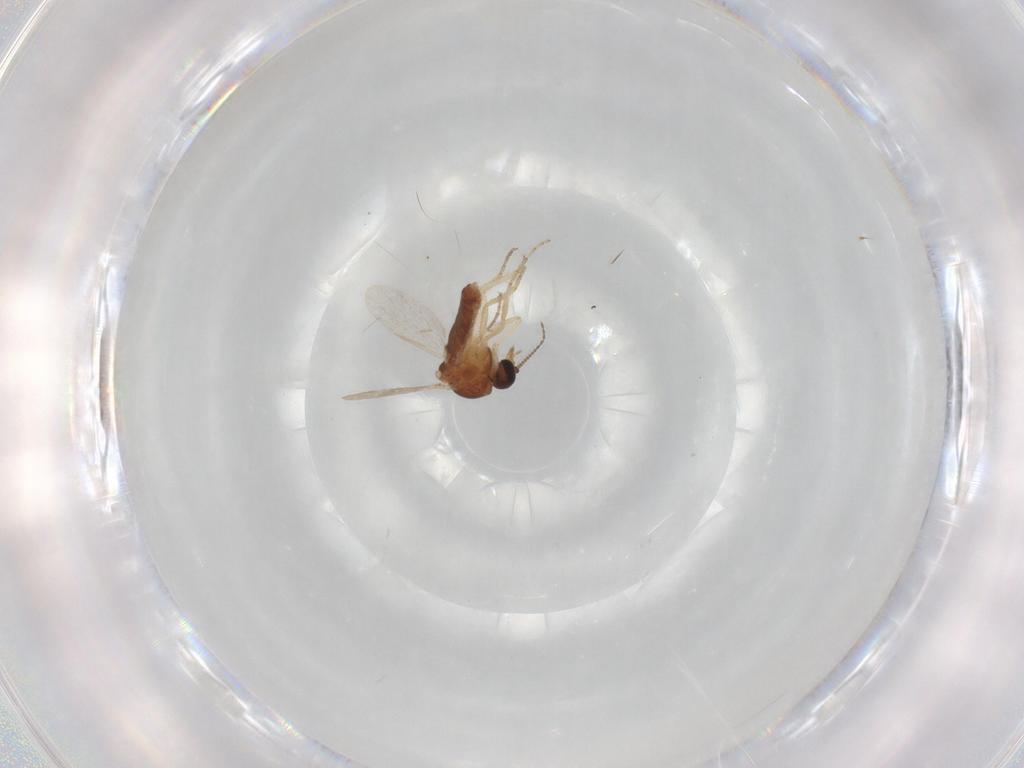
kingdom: Animalia
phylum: Arthropoda
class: Insecta
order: Diptera
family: Ceratopogonidae
